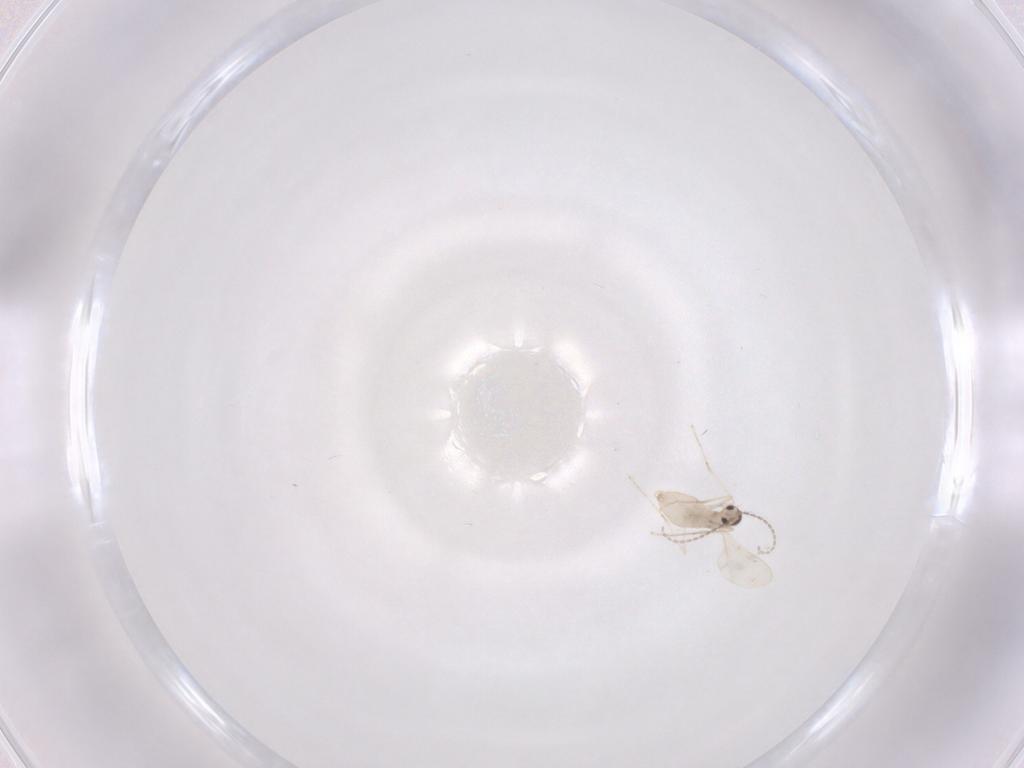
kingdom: Animalia
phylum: Arthropoda
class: Insecta
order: Diptera
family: Cecidomyiidae
